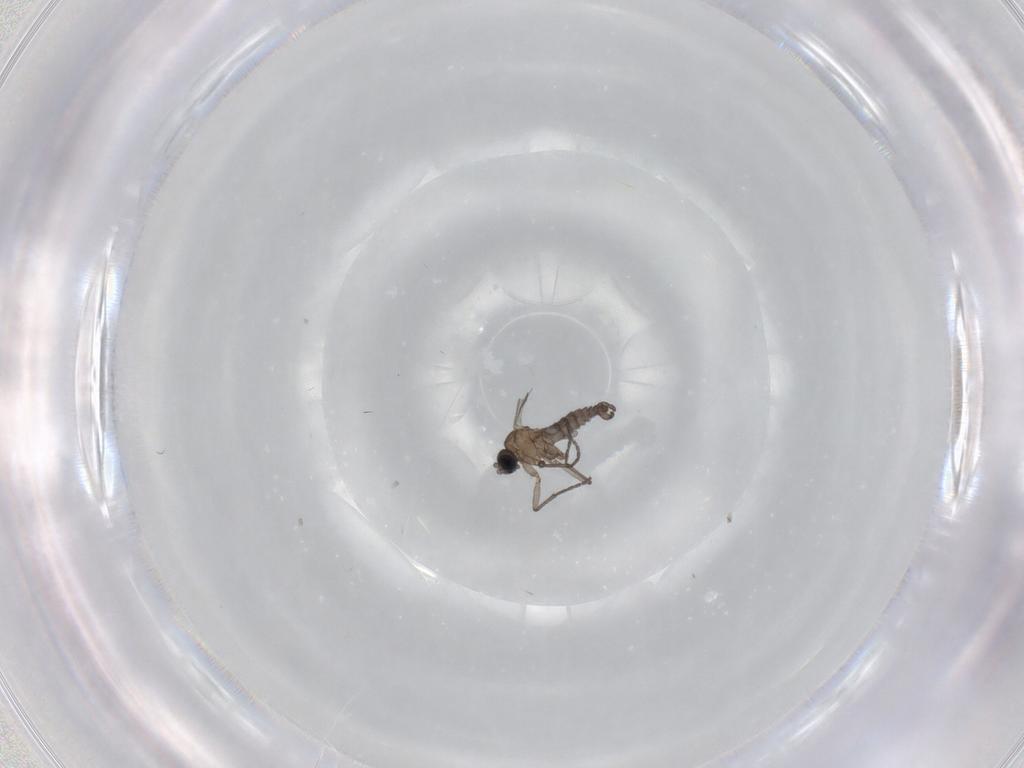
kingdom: Animalia
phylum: Arthropoda
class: Insecta
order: Diptera
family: Sciaridae
